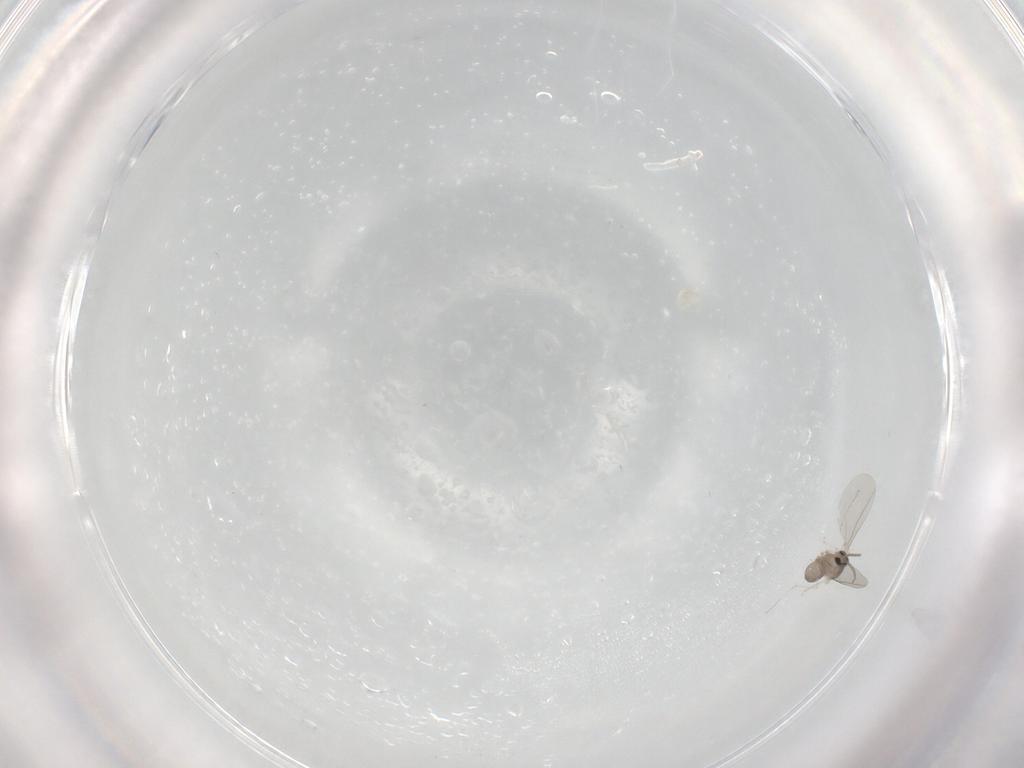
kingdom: Animalia
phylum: Arthropoda
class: Insecta
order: Diptera
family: Cecidomyiidae
